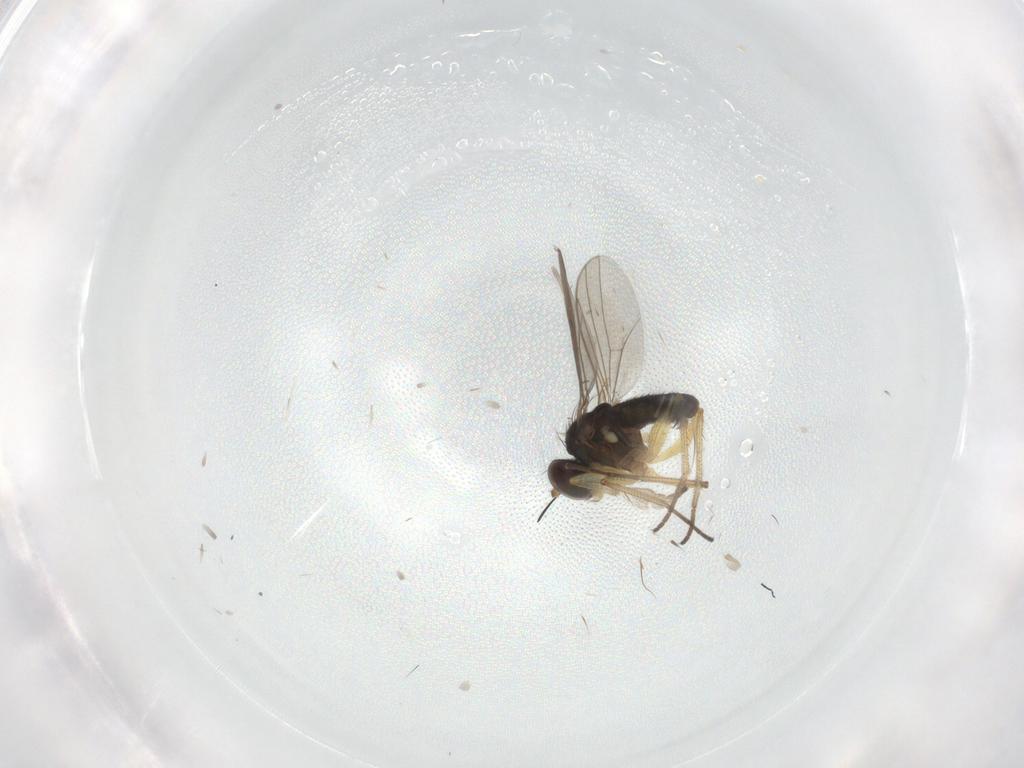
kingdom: Animalia
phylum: Arthropoda
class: Insecta
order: Diptera
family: Dolichopodidae
